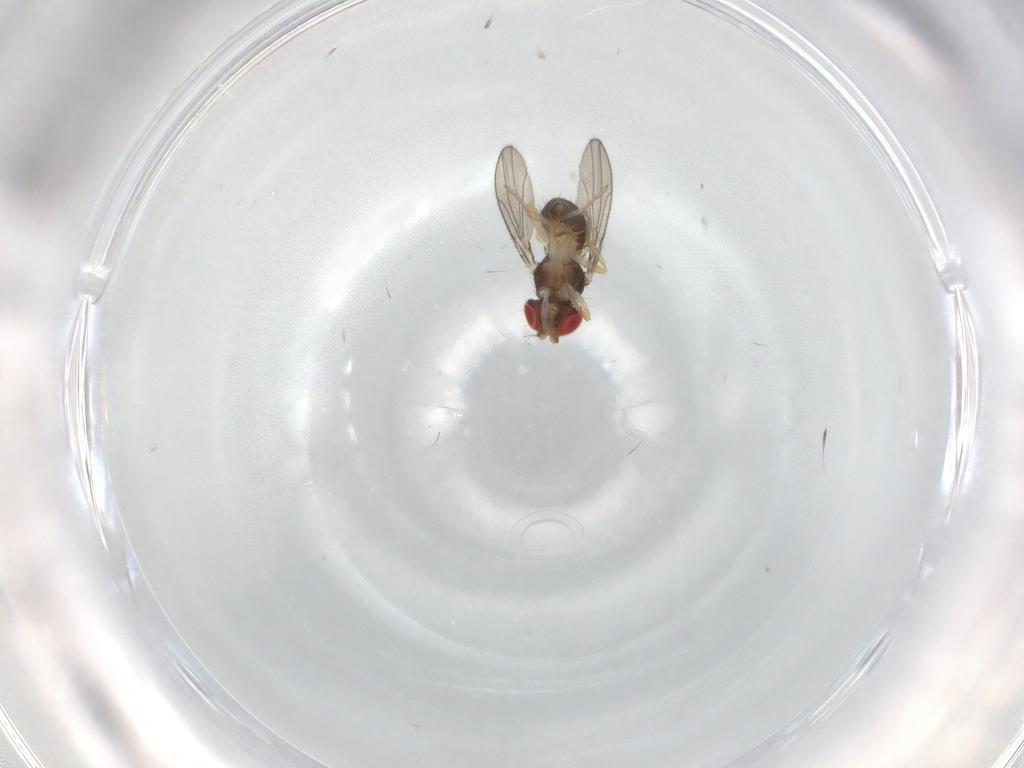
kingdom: Animalia
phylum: Arthropoda
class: Insecta
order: Diptera
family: Drosophilidae
